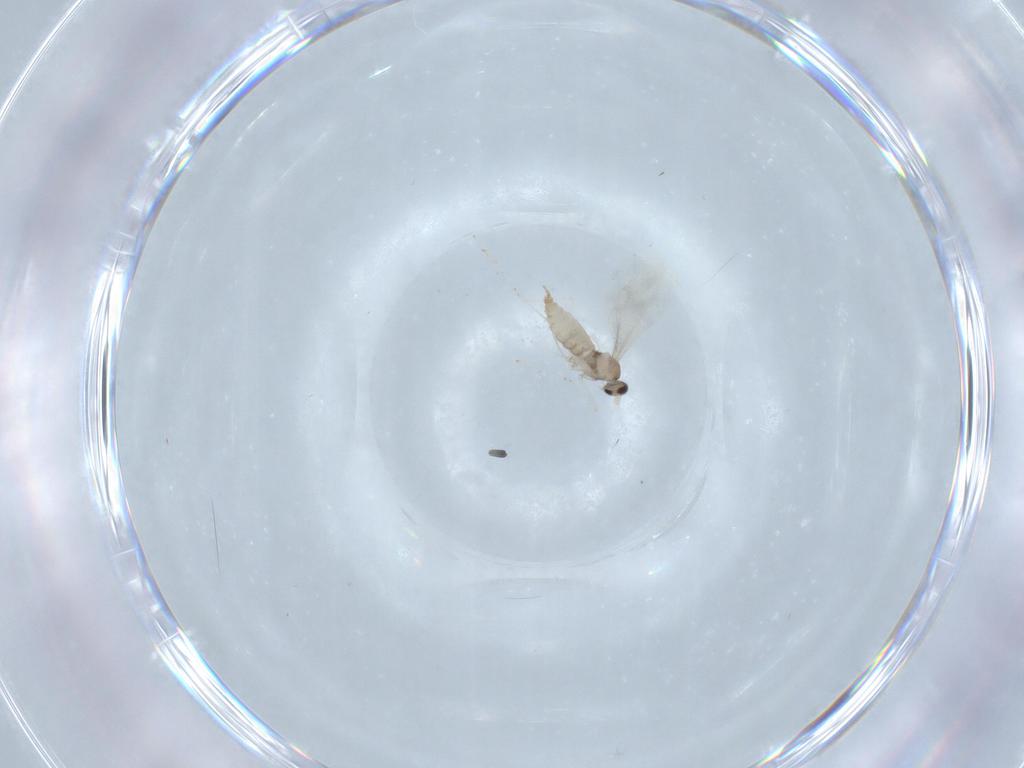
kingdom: Animalia
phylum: Arthropoda
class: Insecta
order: Diptera
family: Cecidomyiidae
